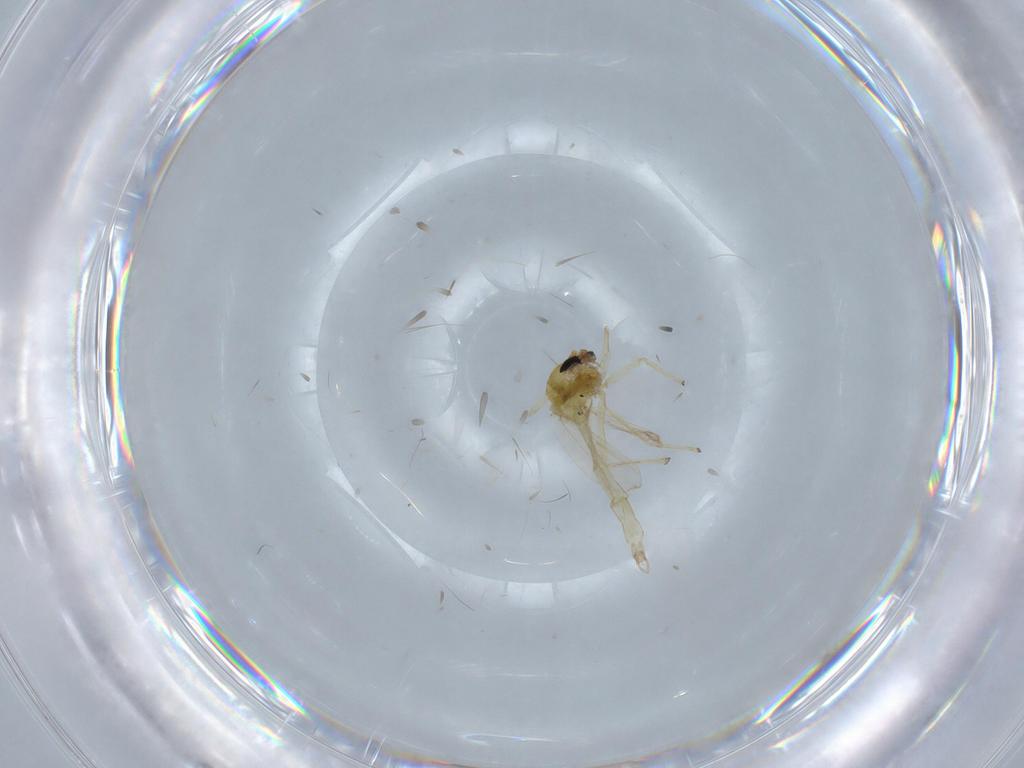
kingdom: Animalia
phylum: Arthropoda
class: Insecta
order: Diptera
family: Chironomidae
